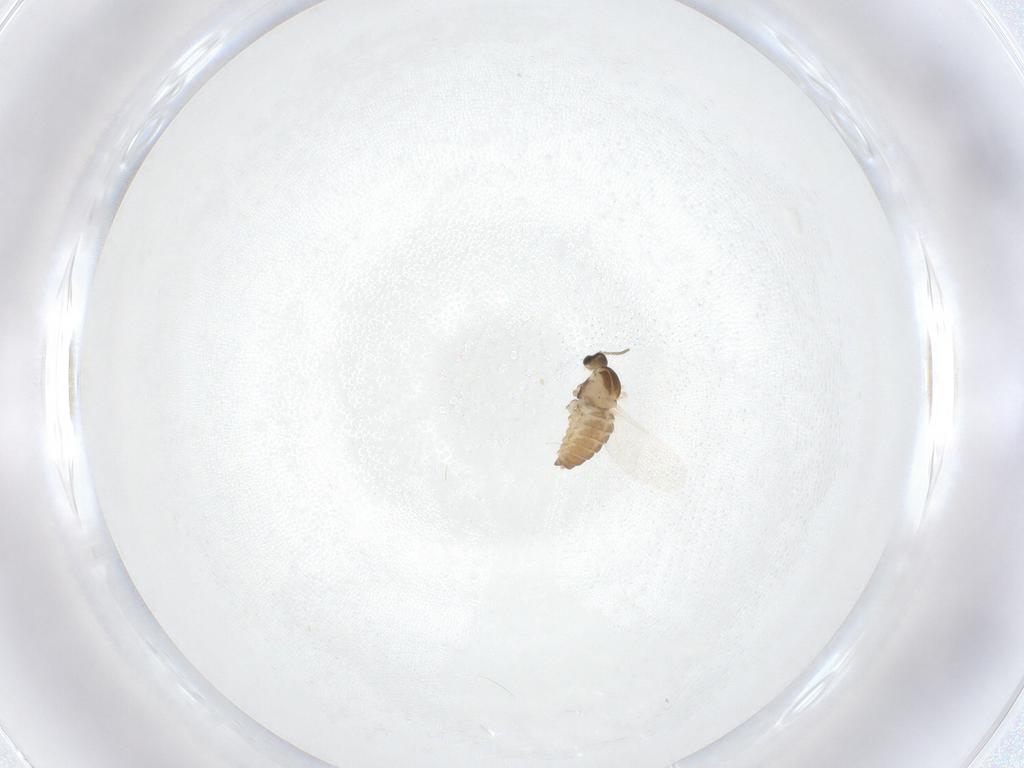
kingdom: Animalia
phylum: Arthropoda
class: Insecta
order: Diptera
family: Cecidomyiidae
